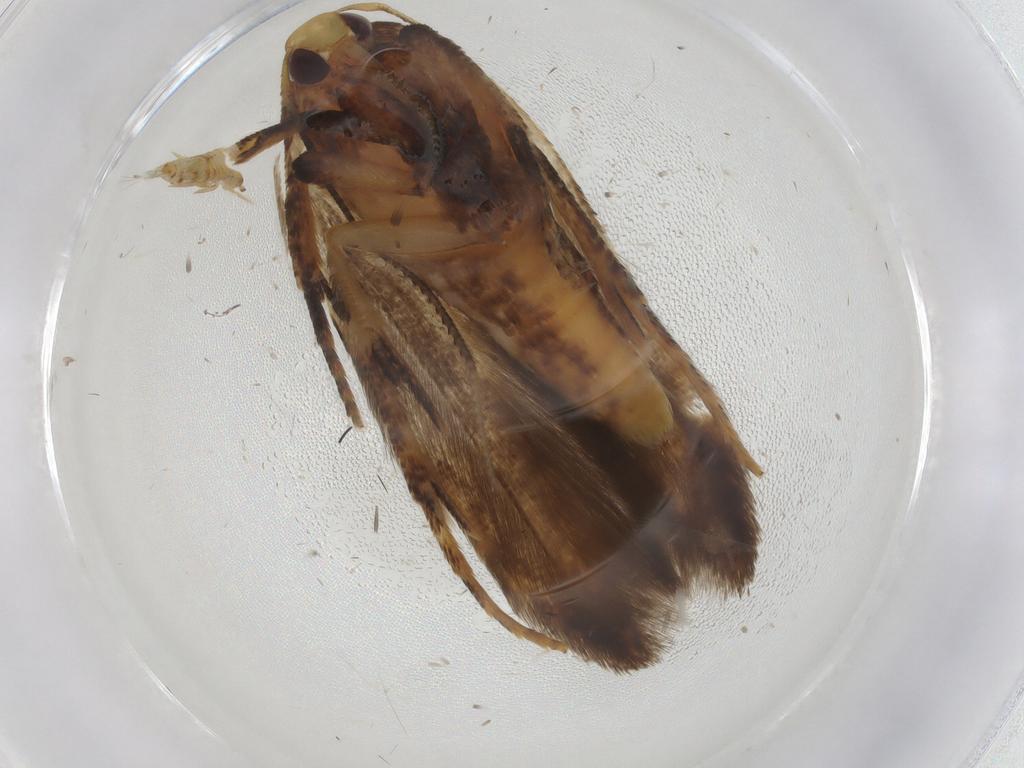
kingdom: Animalia
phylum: Arthropoda
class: Insecta
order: Lepidoptera
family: Cosmopterigidae
